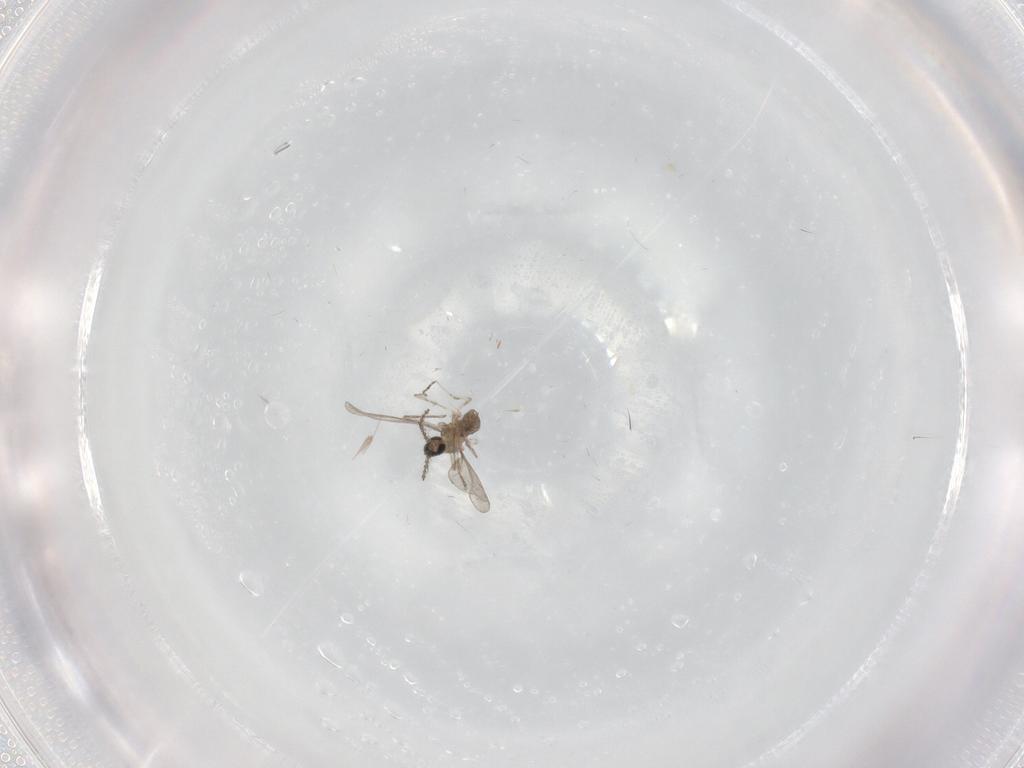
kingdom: Animalia
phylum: Arthropoda
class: Insecta
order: Diptera
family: Cecidomyiidae
